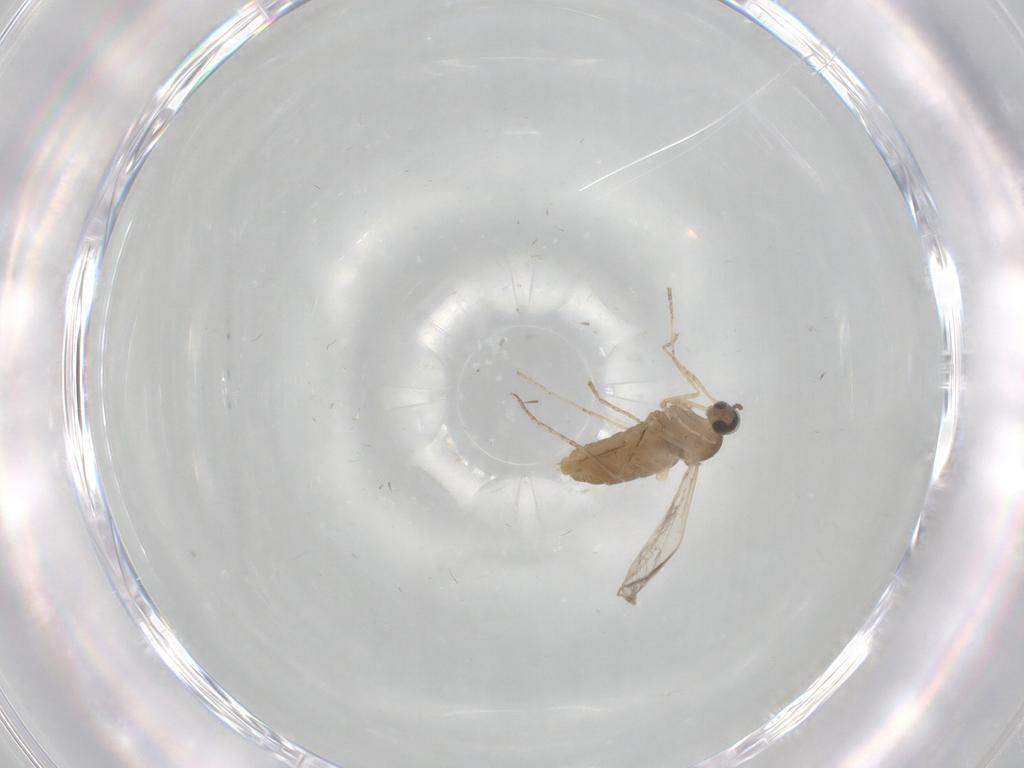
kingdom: Animalia
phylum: Arthropoda
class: Insecta
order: Diptera
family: Cecidomyiidae
